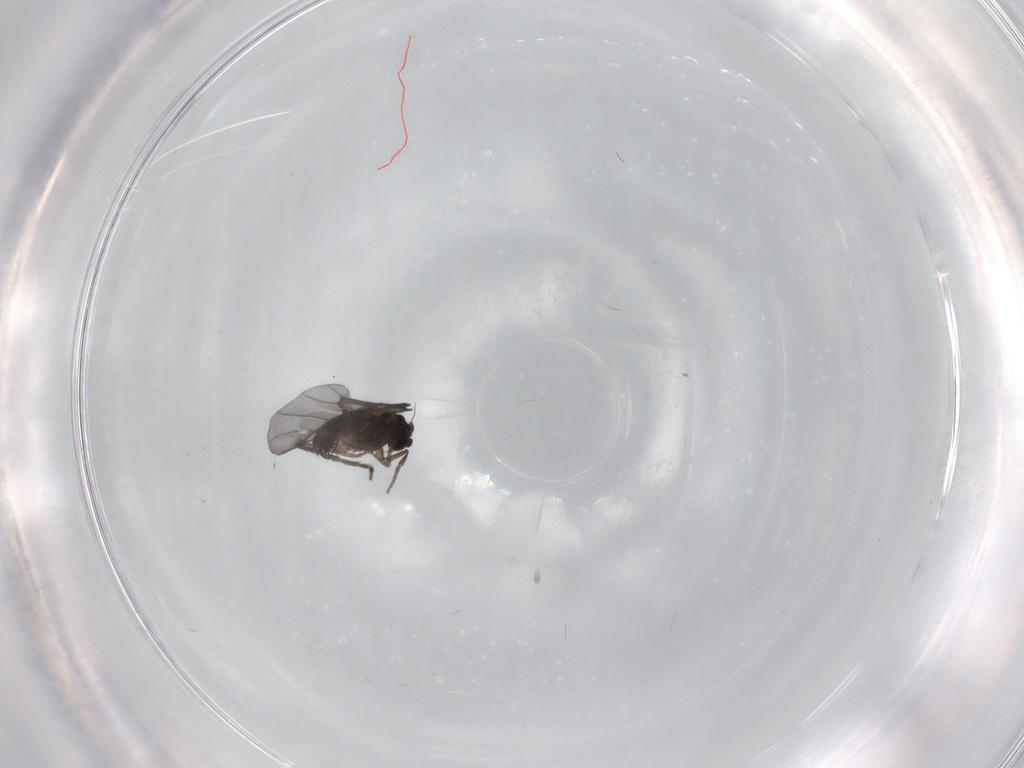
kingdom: Animalia
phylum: Arthropoda
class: Insecta
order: Diptera
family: Phoridae
